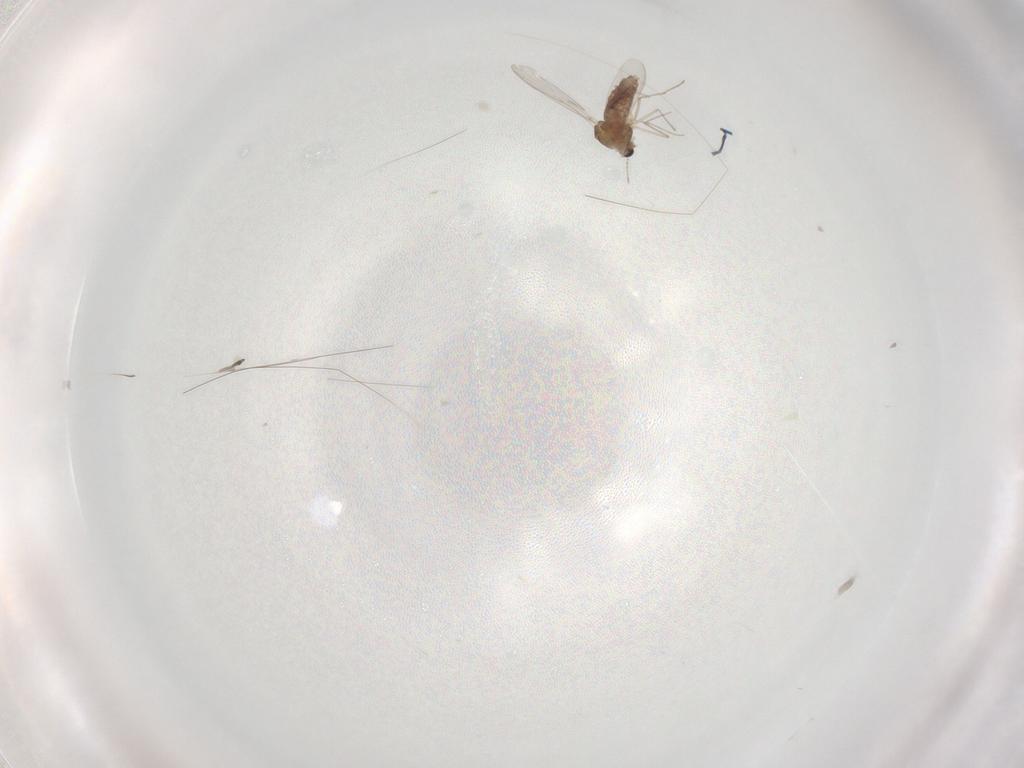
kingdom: Animalia
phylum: Arthropoda
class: Insecta
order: Diptera
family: Chironomidae
